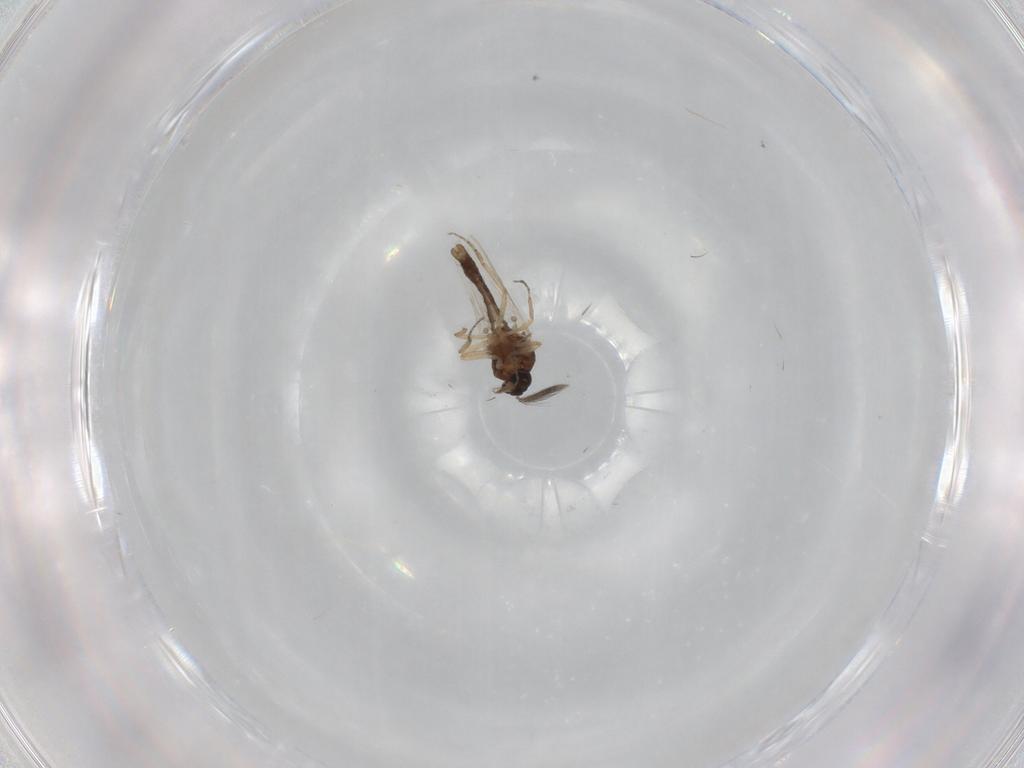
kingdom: Animalia
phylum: Arthropoda
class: Insecta
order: Diptera
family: Ceratopogonidae
